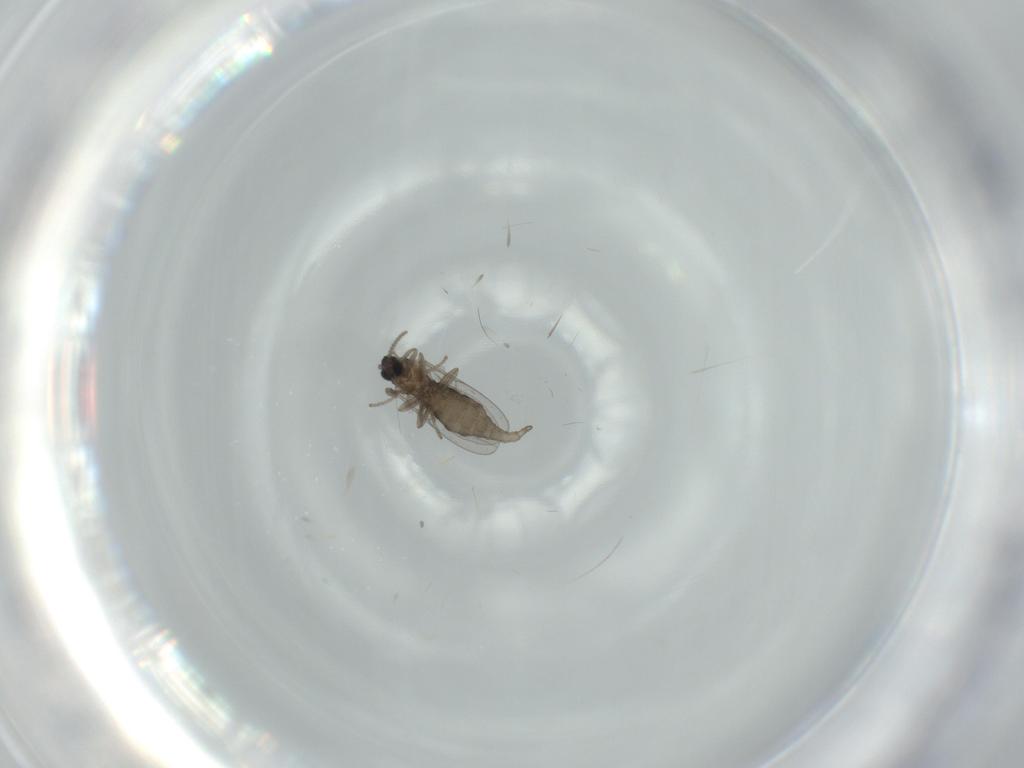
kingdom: Animalia
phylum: Arthropoda
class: Insecta
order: Diptera
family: Cecidomyiidae
